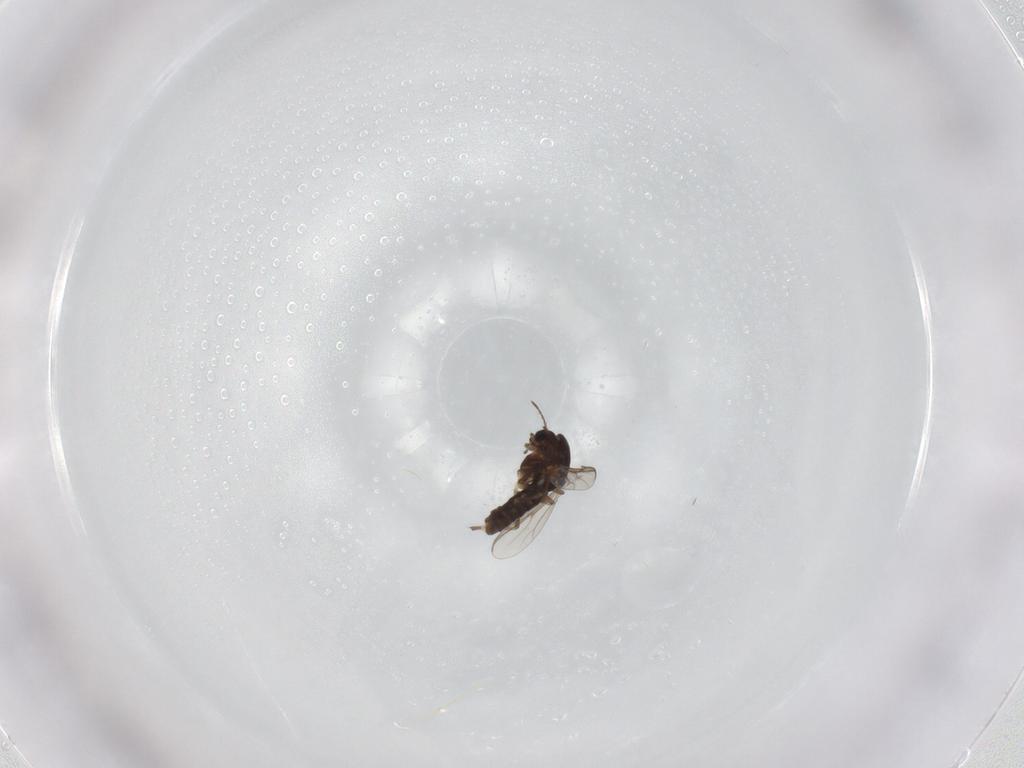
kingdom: Animalia
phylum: Arthropoda
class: Insecta
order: Diptera
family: Chironomidae
